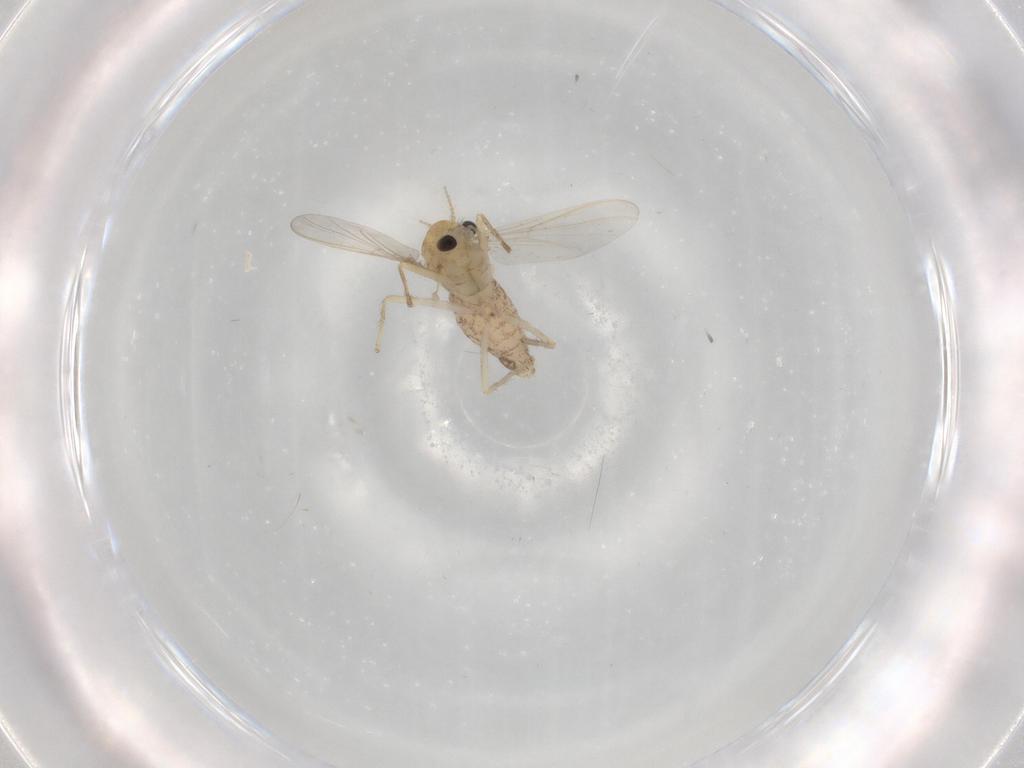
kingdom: Animalia
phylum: Arthropoda
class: Insecta
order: Diptera
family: Chironomidae
